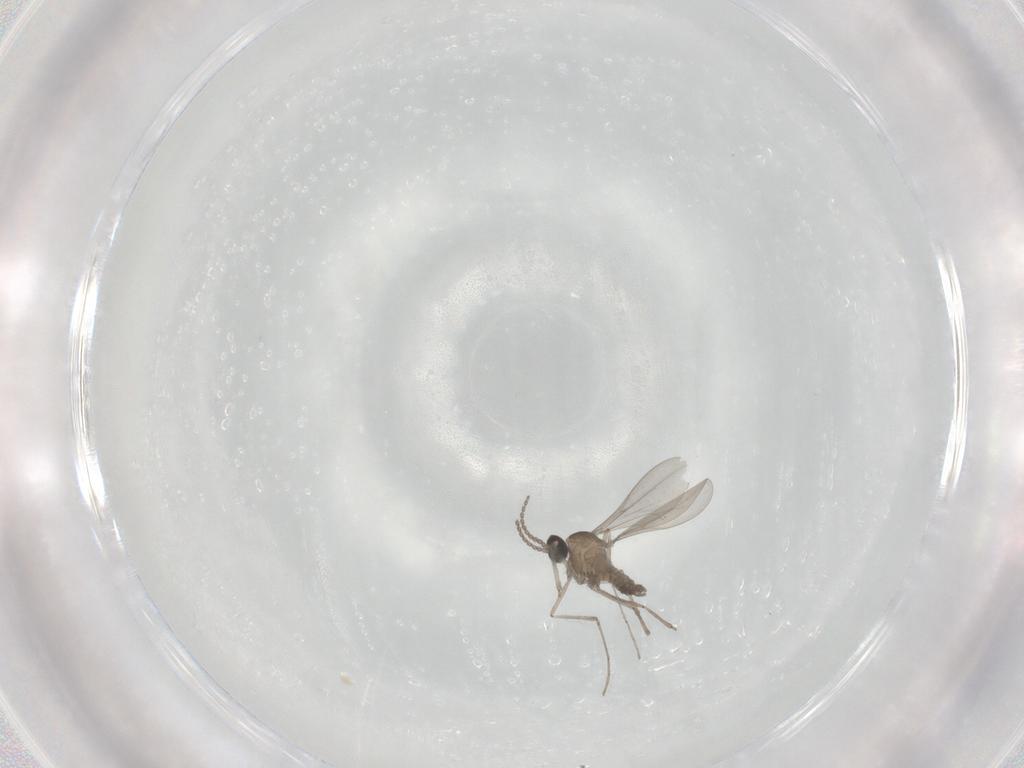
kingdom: Animalia
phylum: Arthropoda
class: Insecta
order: Diptera
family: Cecidomyiidae
